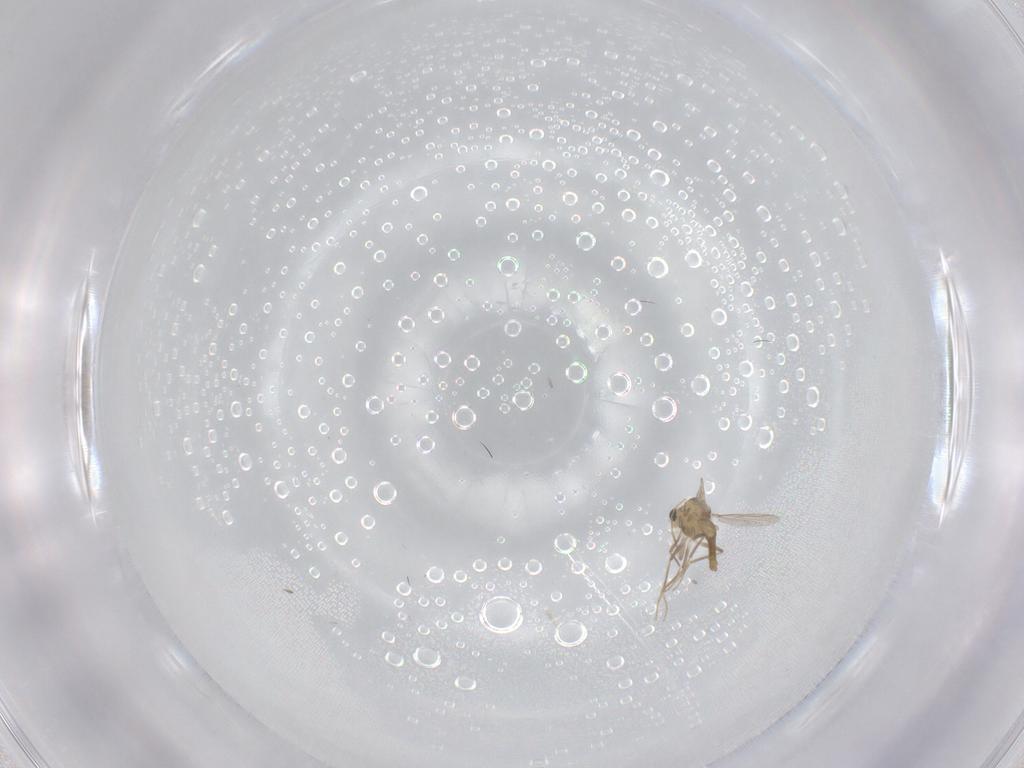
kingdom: Animalia
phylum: Arthropoda
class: Insecta
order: Diptera
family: Chironomidae
